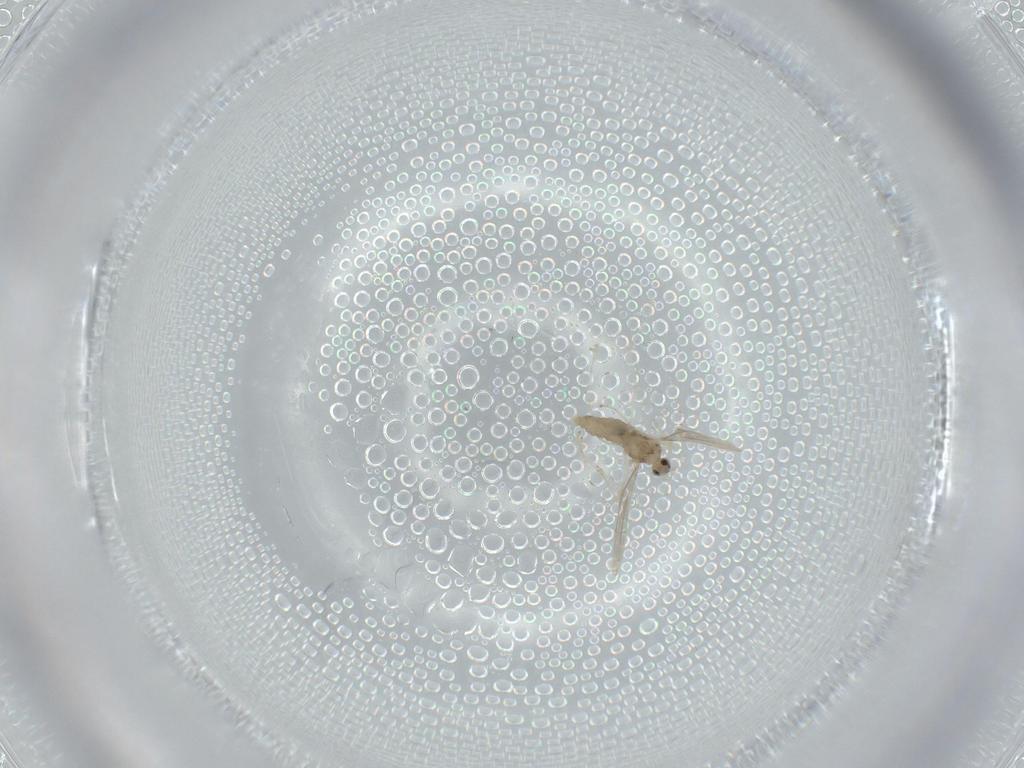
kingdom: Animalia
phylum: Arthropoda
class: Insecta
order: Diptera
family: Cecidomyiidae
